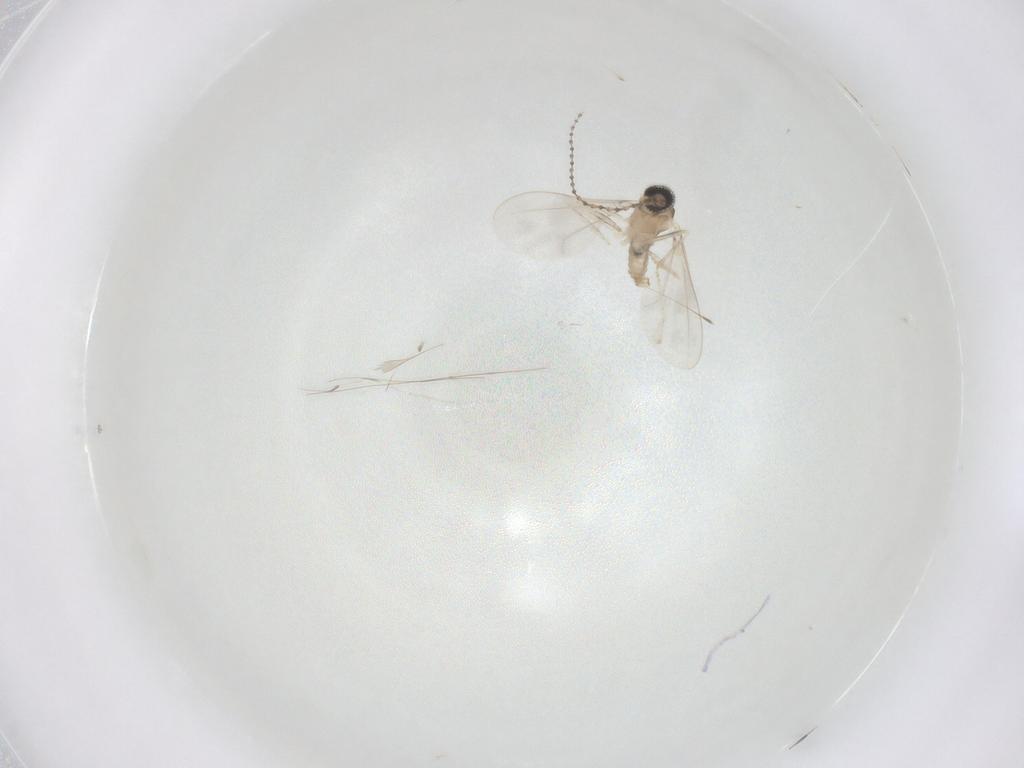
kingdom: Animalia
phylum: Arthropoda
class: Insecta
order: Diptera
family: Cecidomyiidae
